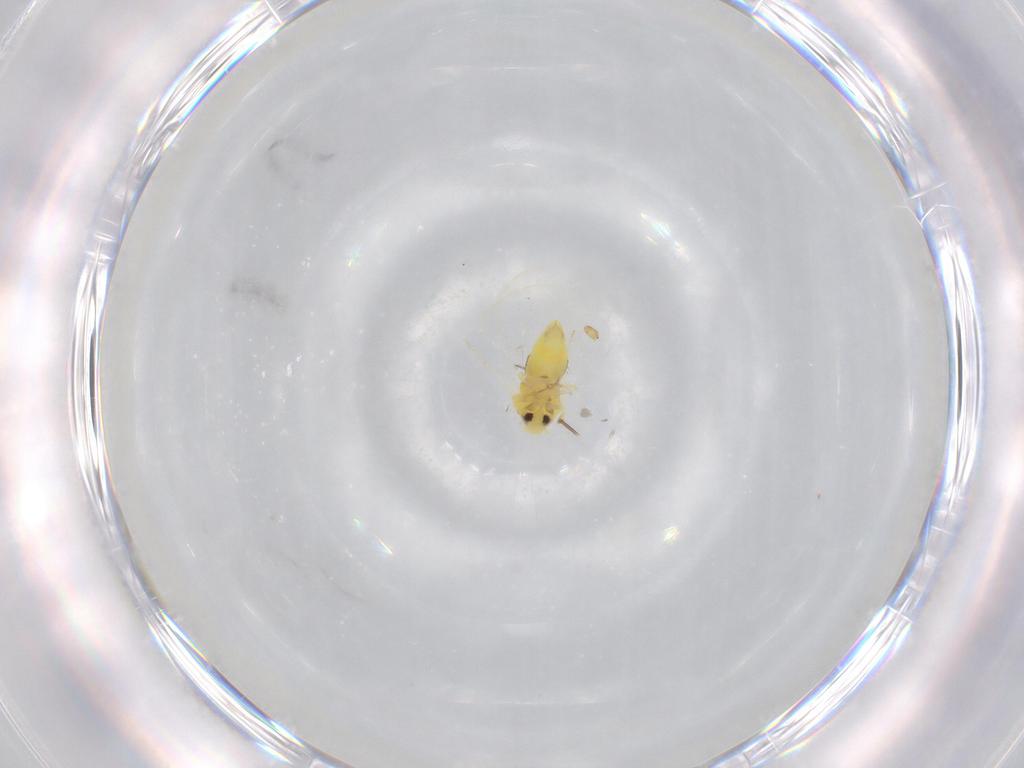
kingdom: Animalia
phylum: Arthropoda
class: Insecta
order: Hemiptera
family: Aleyrodidae
